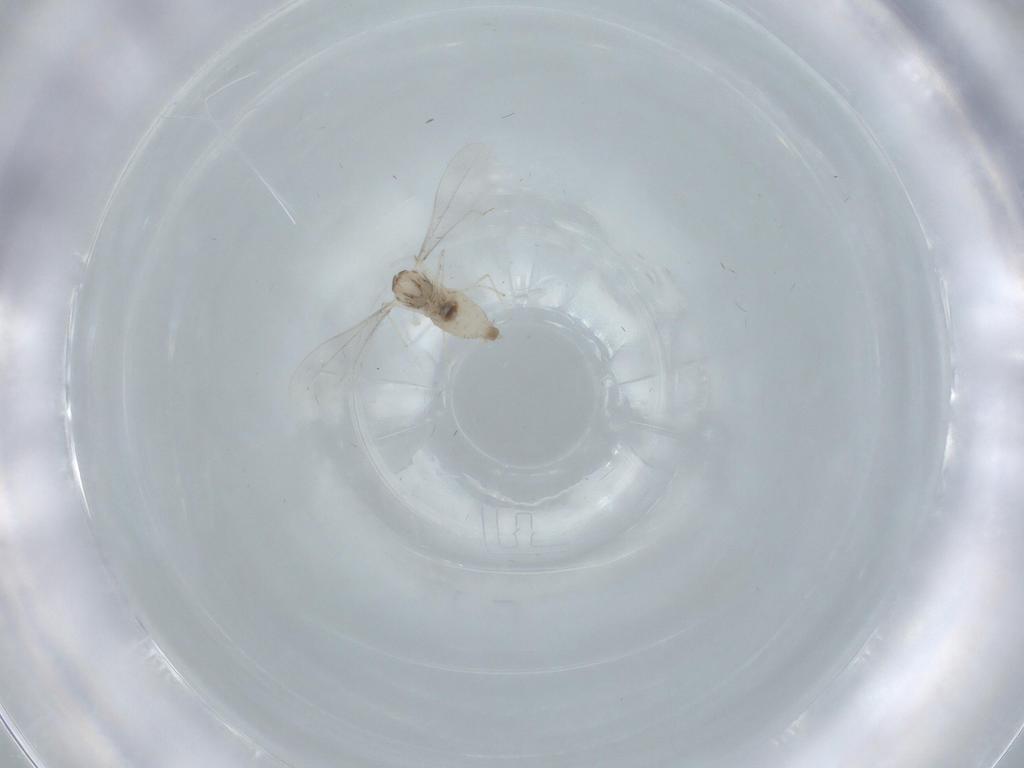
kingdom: Animalia
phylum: Arthropoda
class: Insecta
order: Diptera
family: Cecidomyiidae
